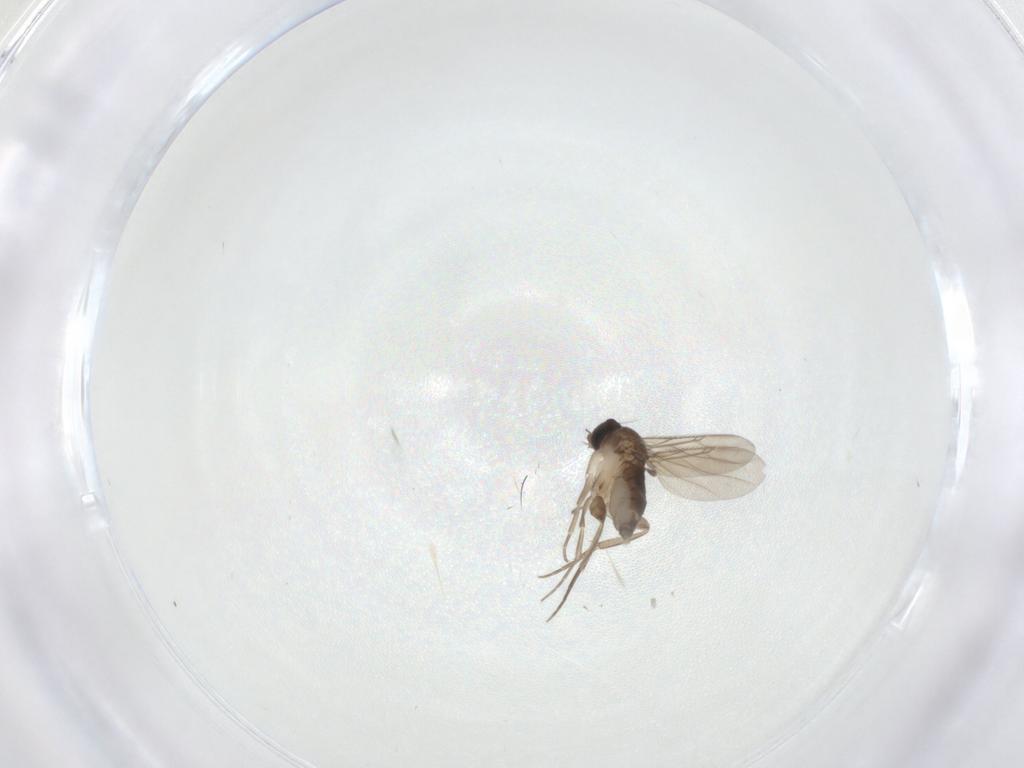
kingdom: Animalia
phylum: Arthropoda
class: Insecta
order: Diptera
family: Phoridae
